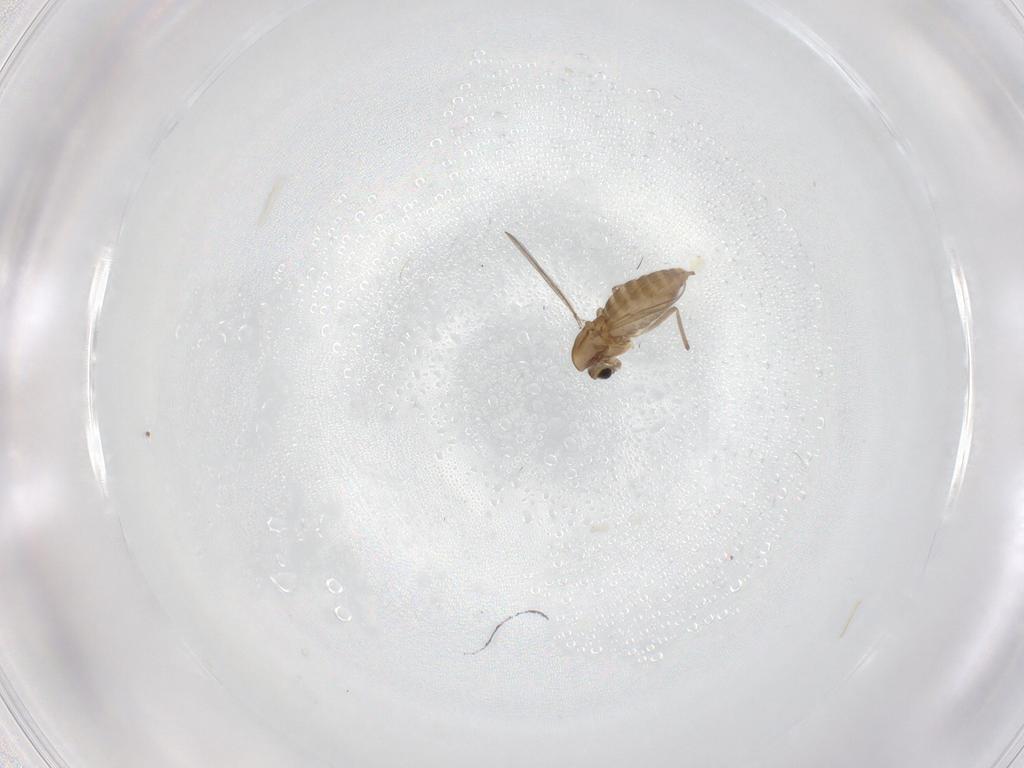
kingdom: Animalia
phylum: Arthropoda
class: Insecta
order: Diptera
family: Chironomidae
